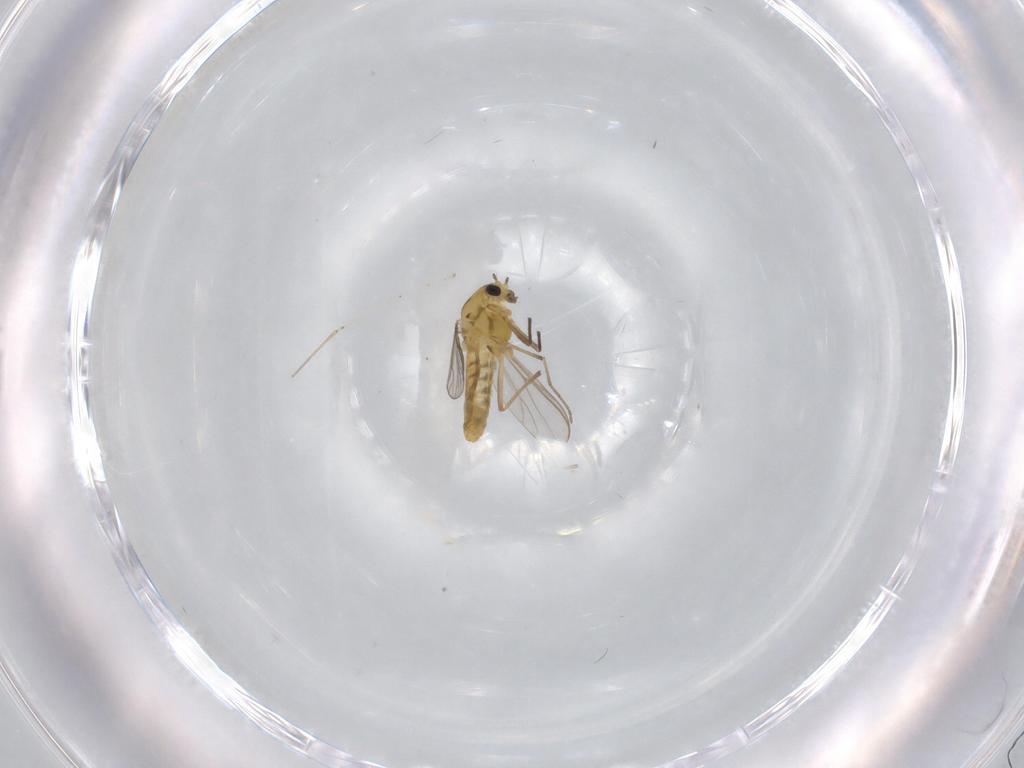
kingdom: Animalia
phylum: Arthropoda
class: Insecta
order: Diptera
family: Chironomidae
